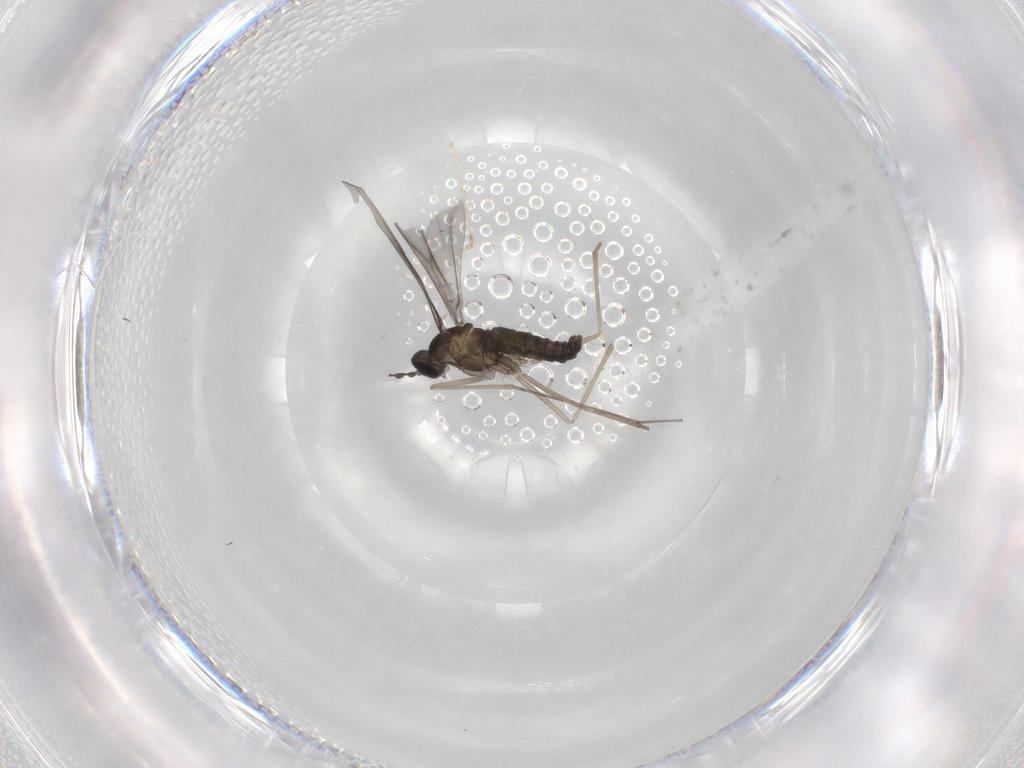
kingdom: Animalia
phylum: Arthropoda
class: Insecta
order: Diptera
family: Cecidomyiidae
